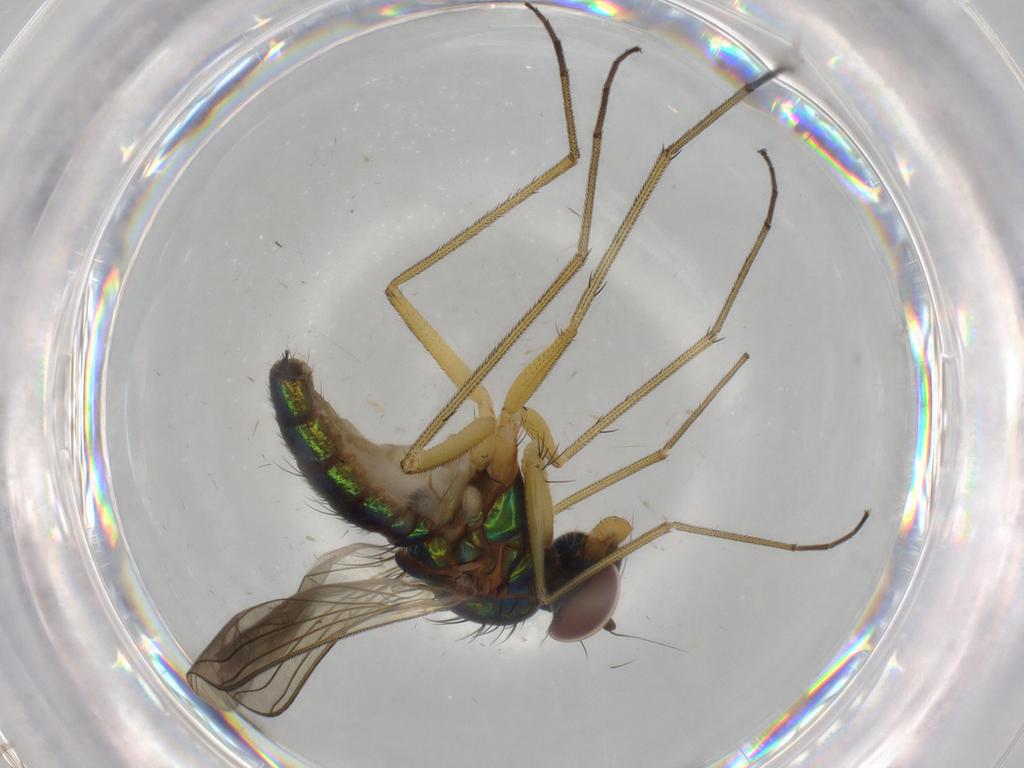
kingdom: Animalia
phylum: Arthropoda
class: Insecta
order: Diptera
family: Dolichopodidae
